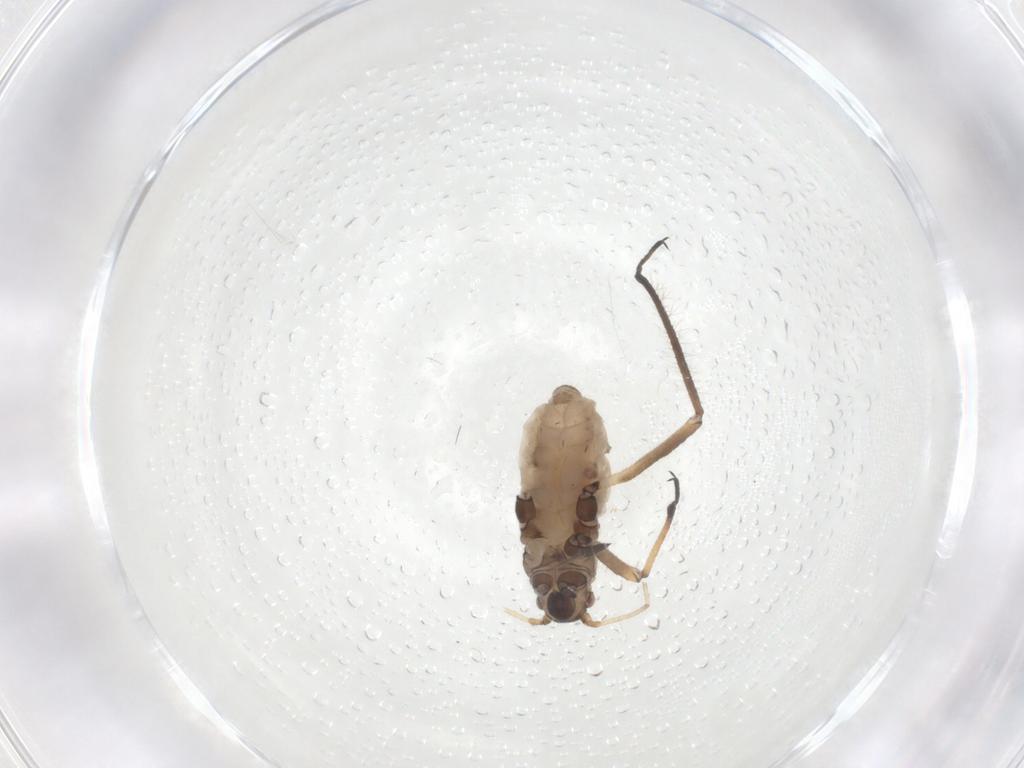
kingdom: Animalia
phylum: Arthropoda
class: Insecta
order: Hemiptera
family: Lachnidae
